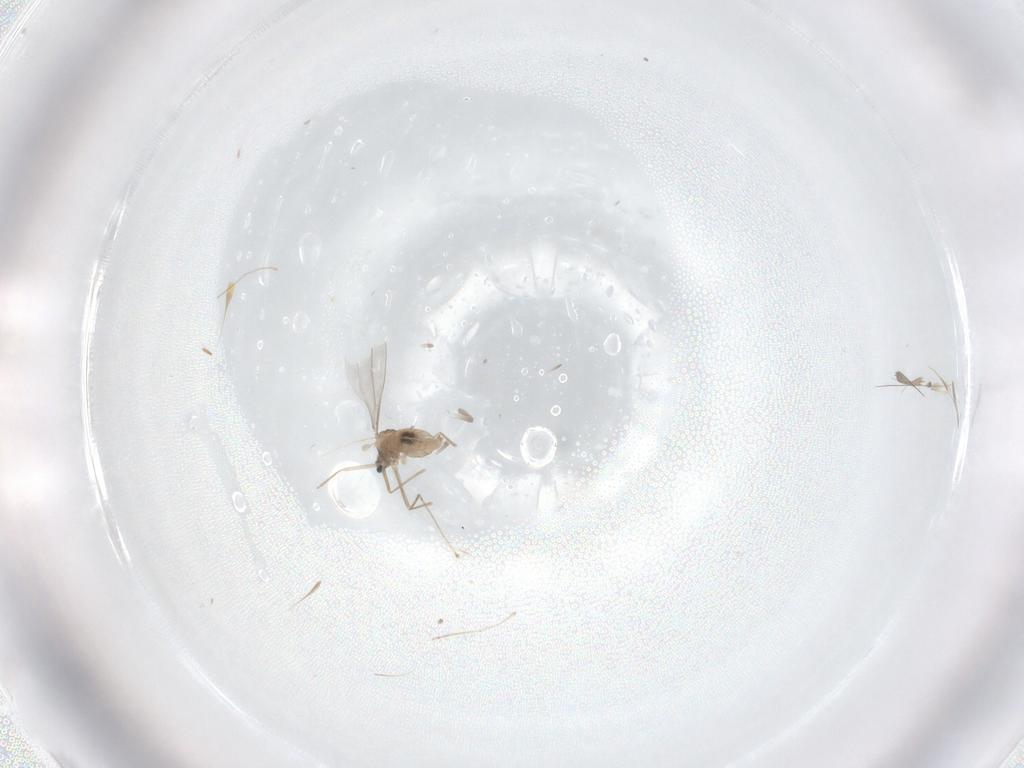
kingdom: Animalia
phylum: Arthropoda
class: Insecta
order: Diptera
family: Cecidomyiidae
